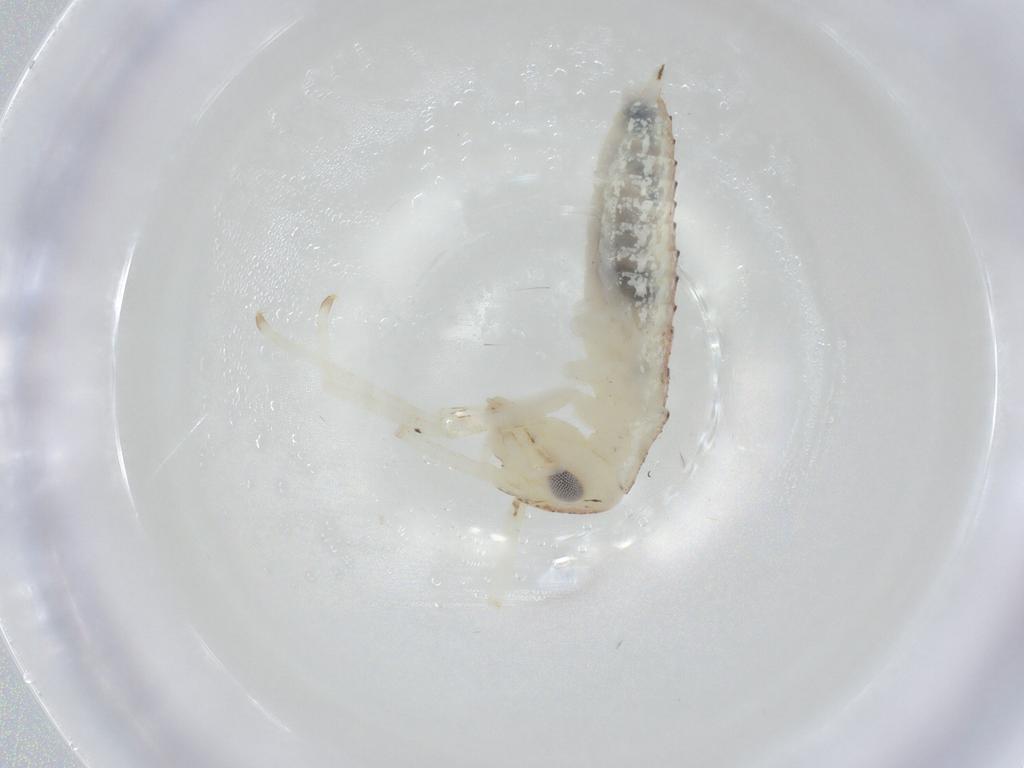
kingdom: Animalia
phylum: Arthropoda
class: Insecta
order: Orthoptera
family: Oecanthidae
